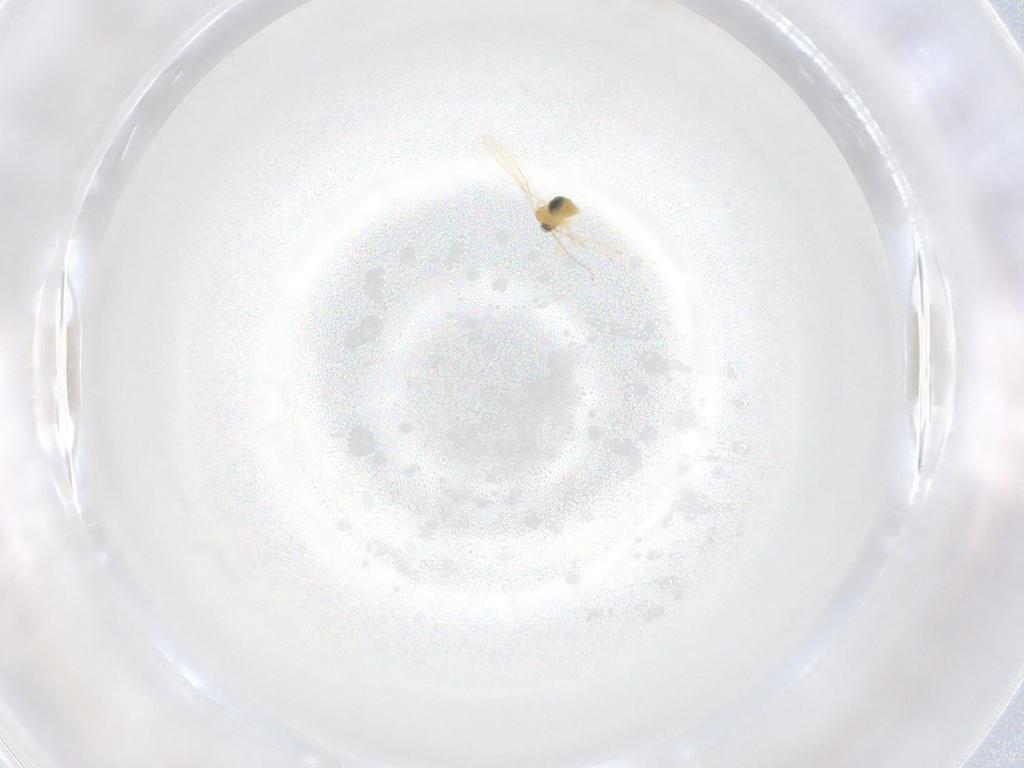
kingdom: Animalia
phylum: Arthropoda
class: Insecta
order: Diptera
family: Cecidomyiidae
